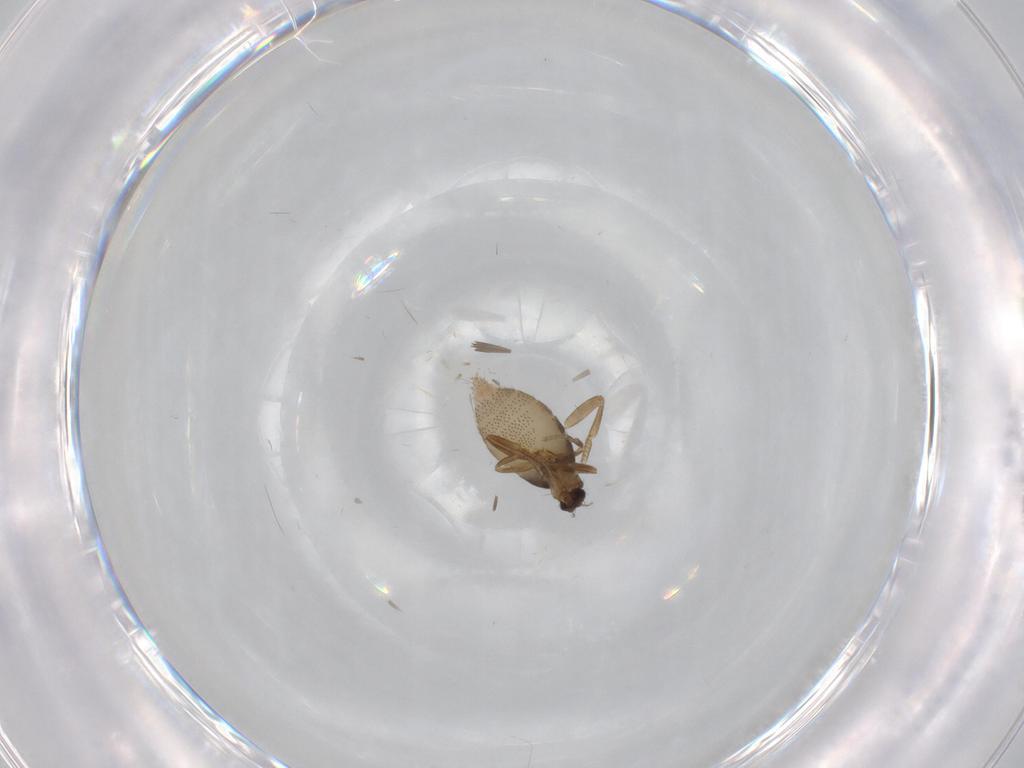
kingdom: Animalia
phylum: Arthropoda
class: Insecta
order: Diptera
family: Phoridae
